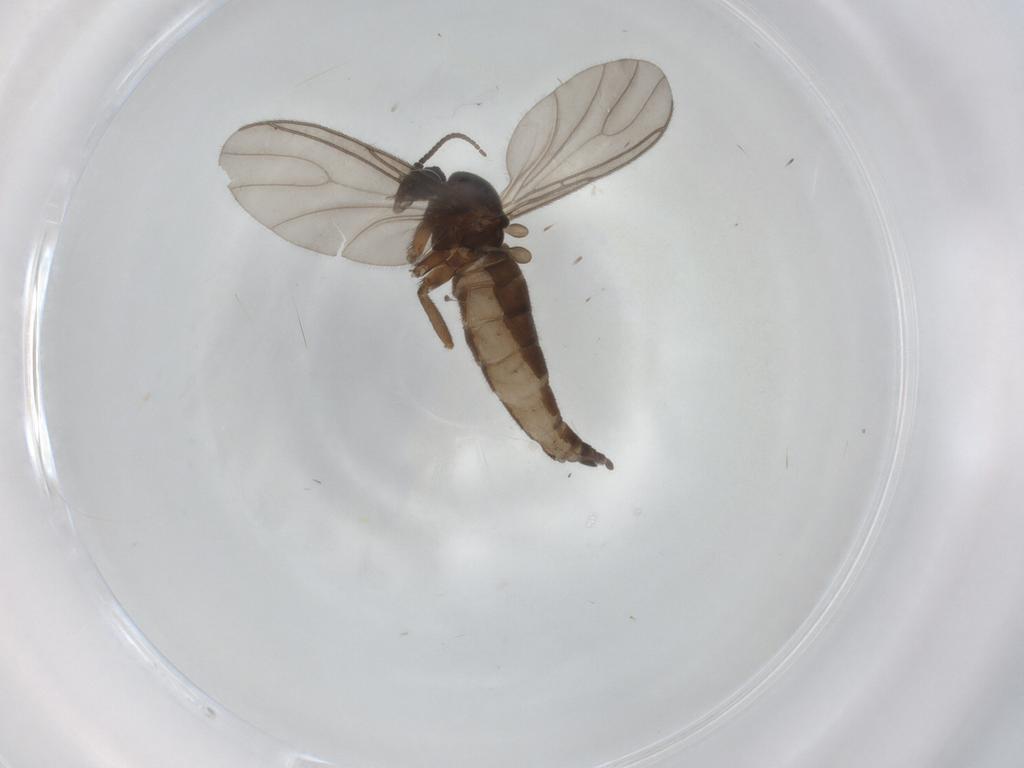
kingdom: Animalia
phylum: Arthropoda
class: Insecta
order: Diptera
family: Sciaridae
